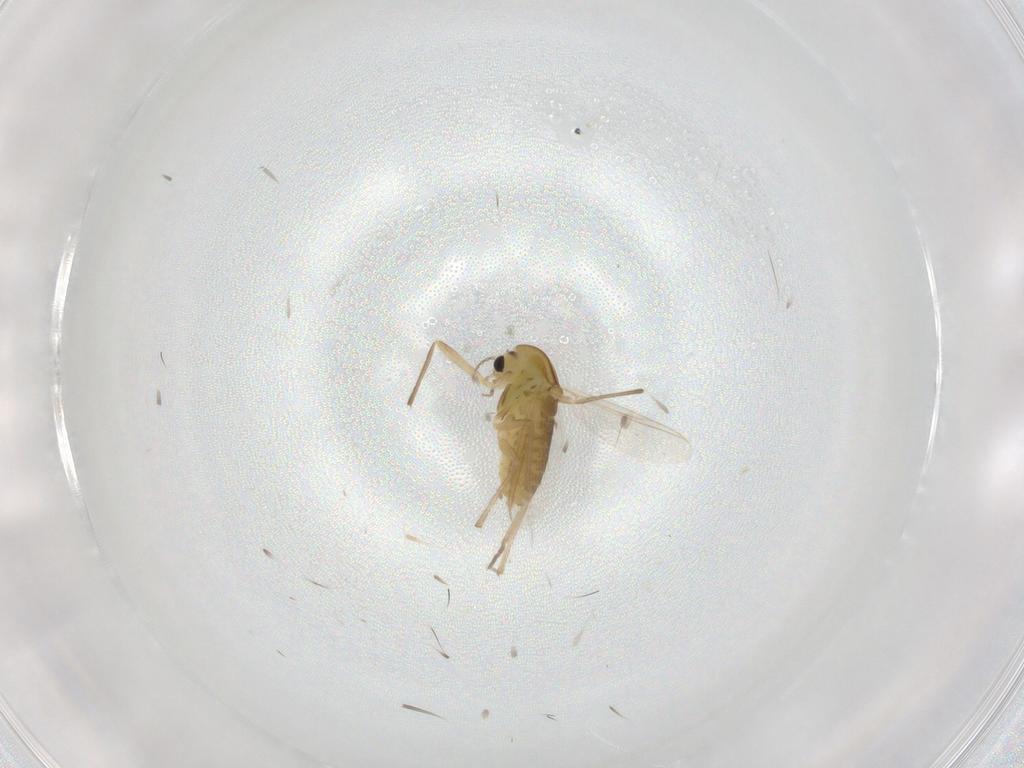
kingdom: Animalia
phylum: Arthropoda
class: Insecta
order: Diptera
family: Chironomidae
